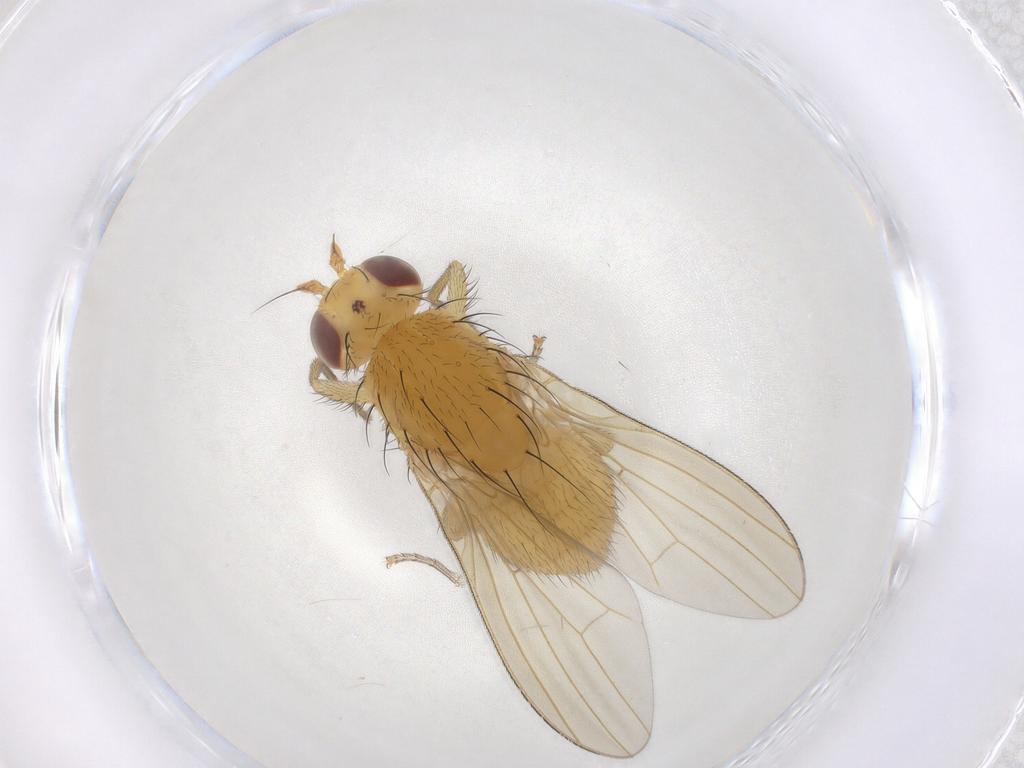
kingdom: Animalia
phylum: Arthropoda
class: Insecta
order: Diptera
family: Lauxaniidae
